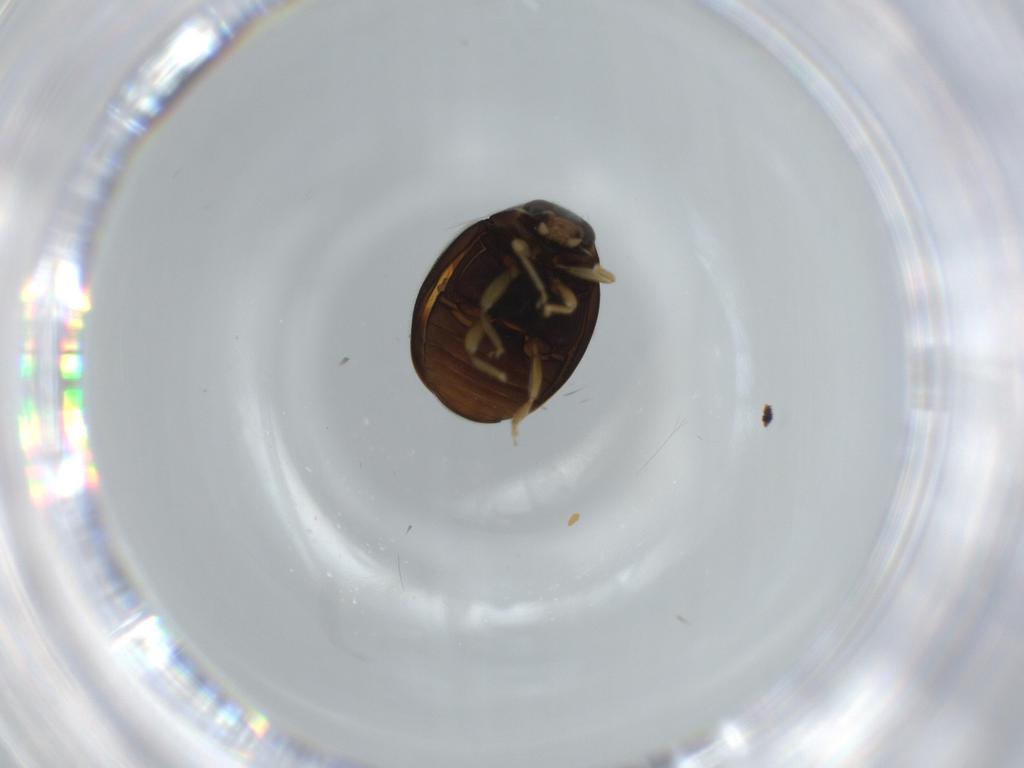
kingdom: Animalia
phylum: Arthropoda
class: Insecta
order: Coleoptera
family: Coccinellidae
